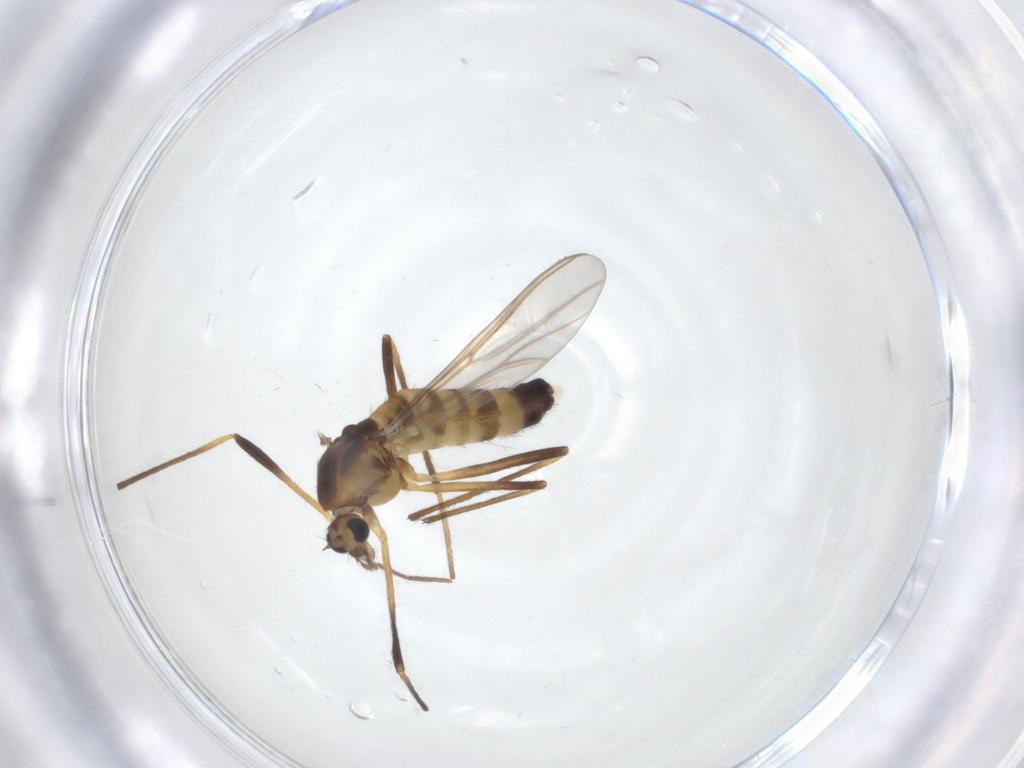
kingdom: Animalia
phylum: Arthropoda
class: Insecta
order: Diptera
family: Chironomidae
